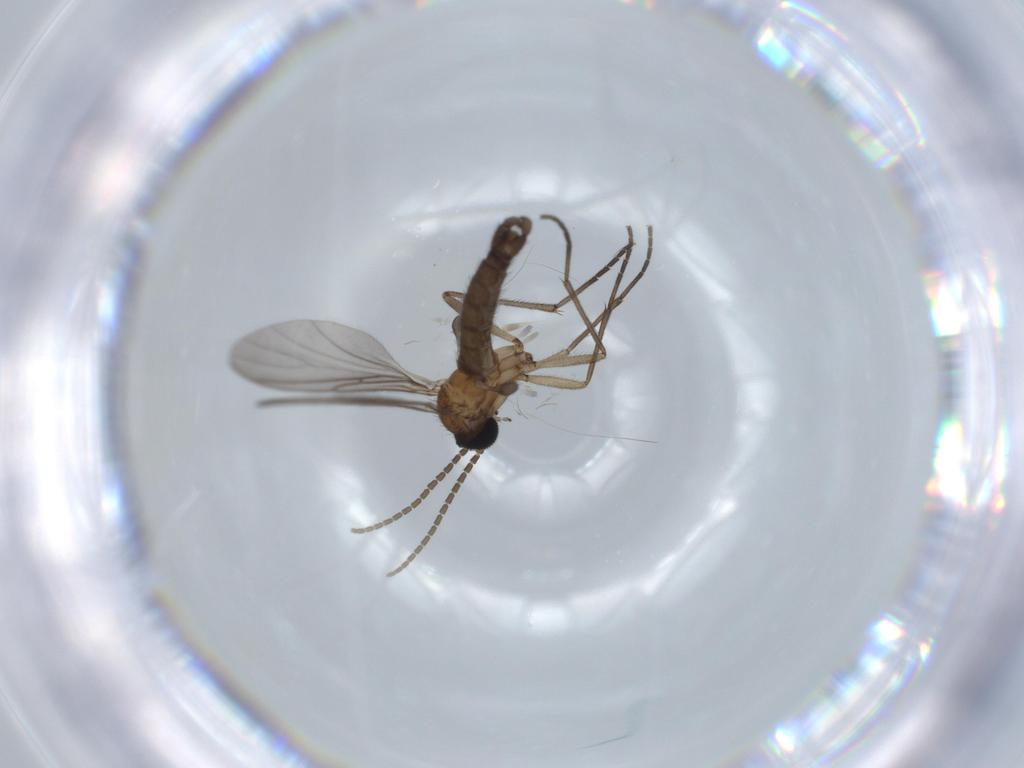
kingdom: Animalia
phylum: Arthropoda
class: Insecta
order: Diptera
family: Sciaridae
